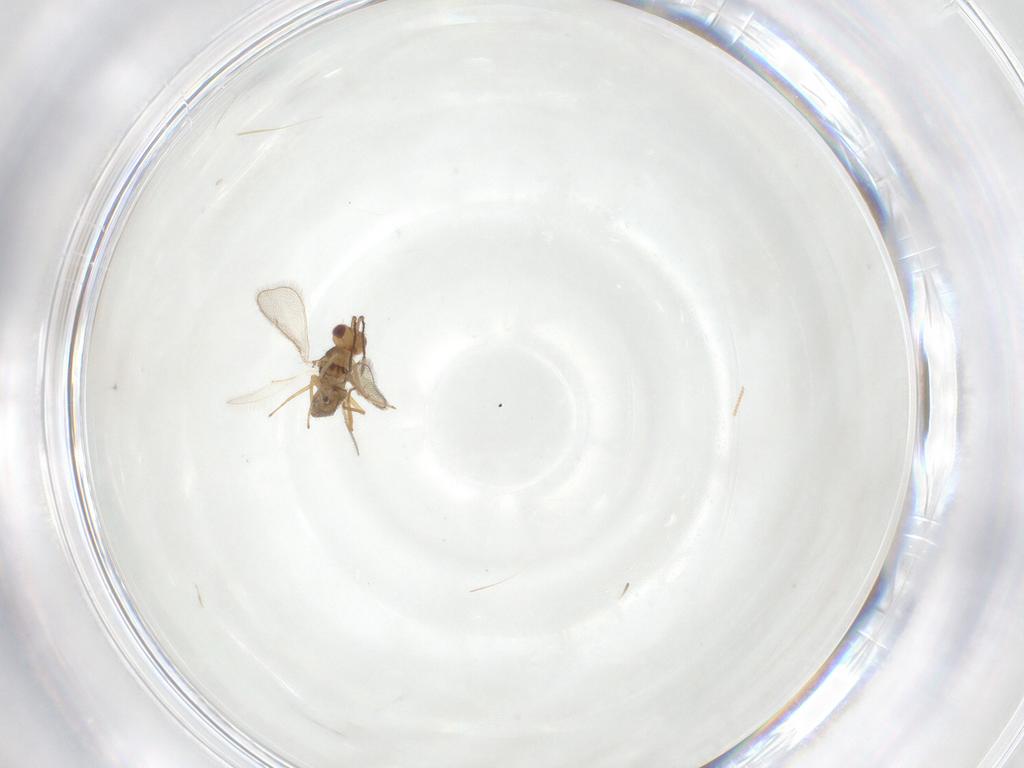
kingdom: Animalia
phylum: Arthropoda
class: Insecta
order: Hymenoptera
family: Eulophidae
